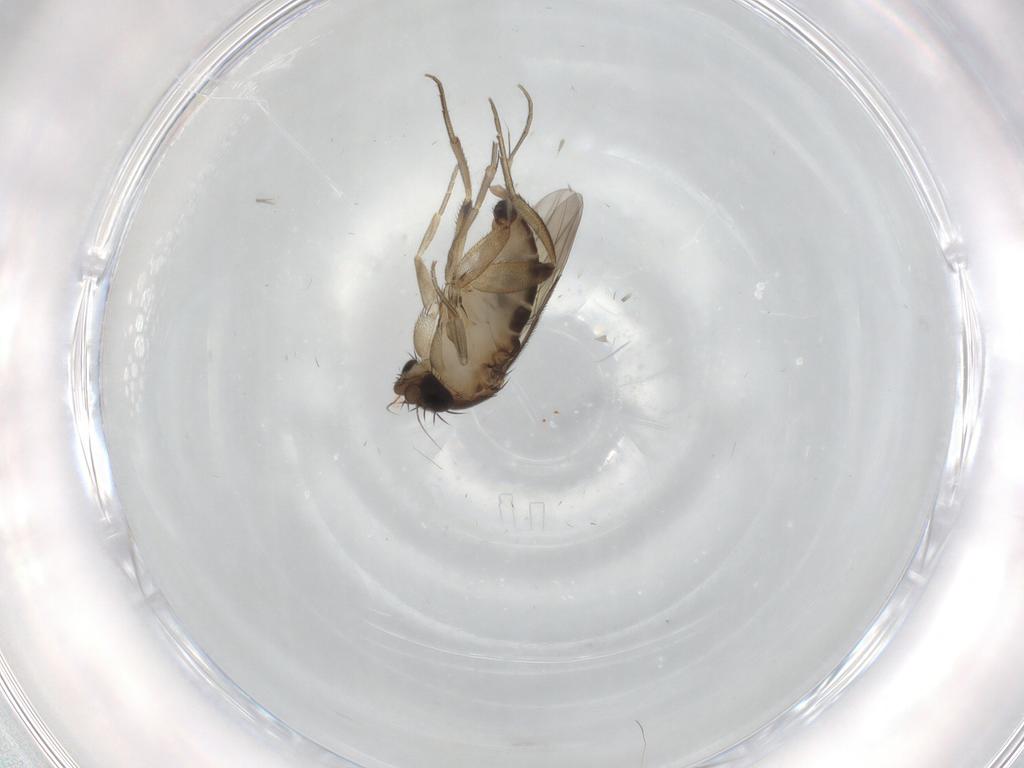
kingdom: Animalia
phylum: Arthropoda
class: Insecta
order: Diptera
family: Phoridae
